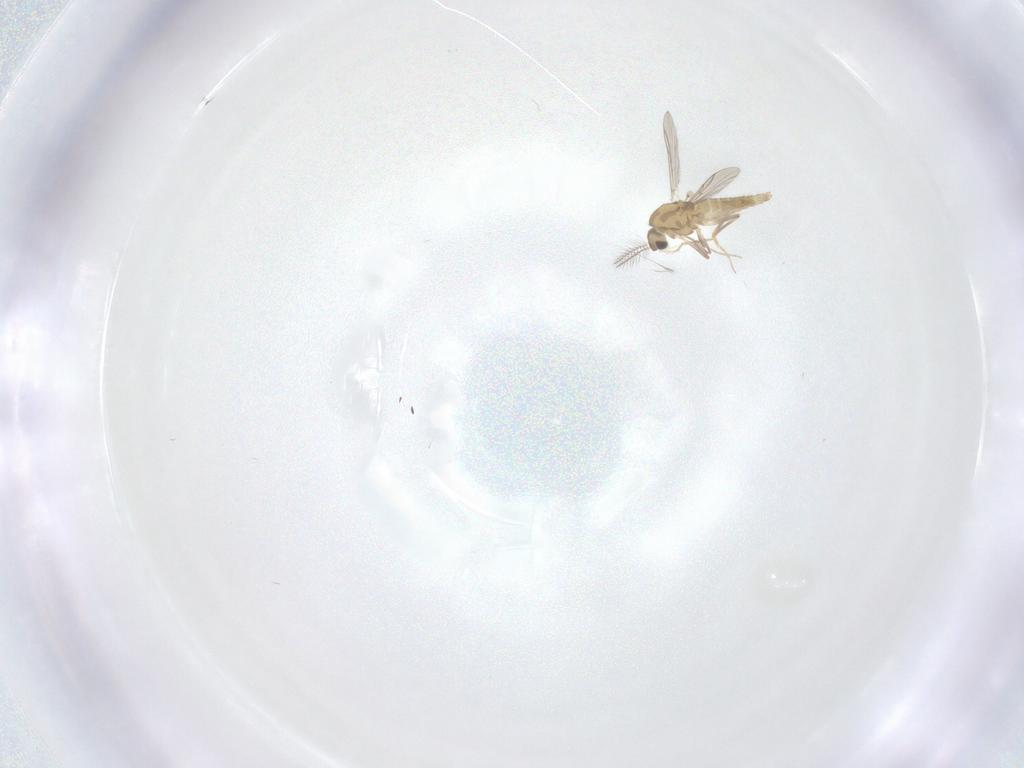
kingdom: Animalia
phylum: Arthropoda
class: Insecta
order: Diptera
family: Chironomidae
